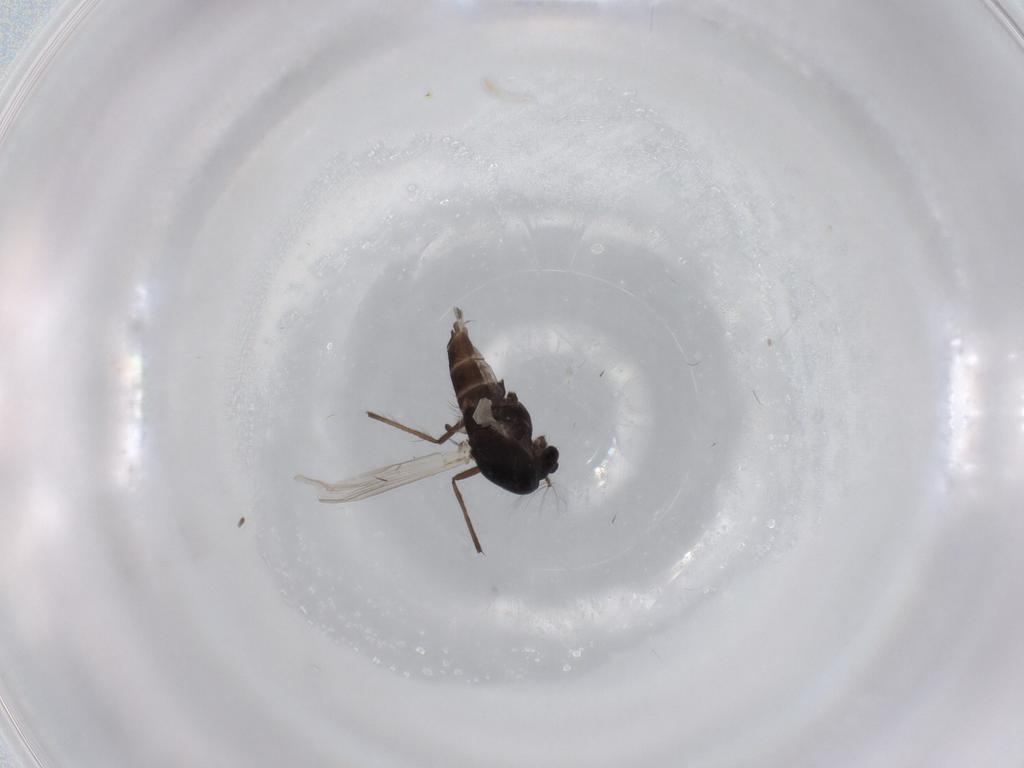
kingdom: Animalia
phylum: Arthropoda
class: Insecta
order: Diptera
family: Chironomidae
